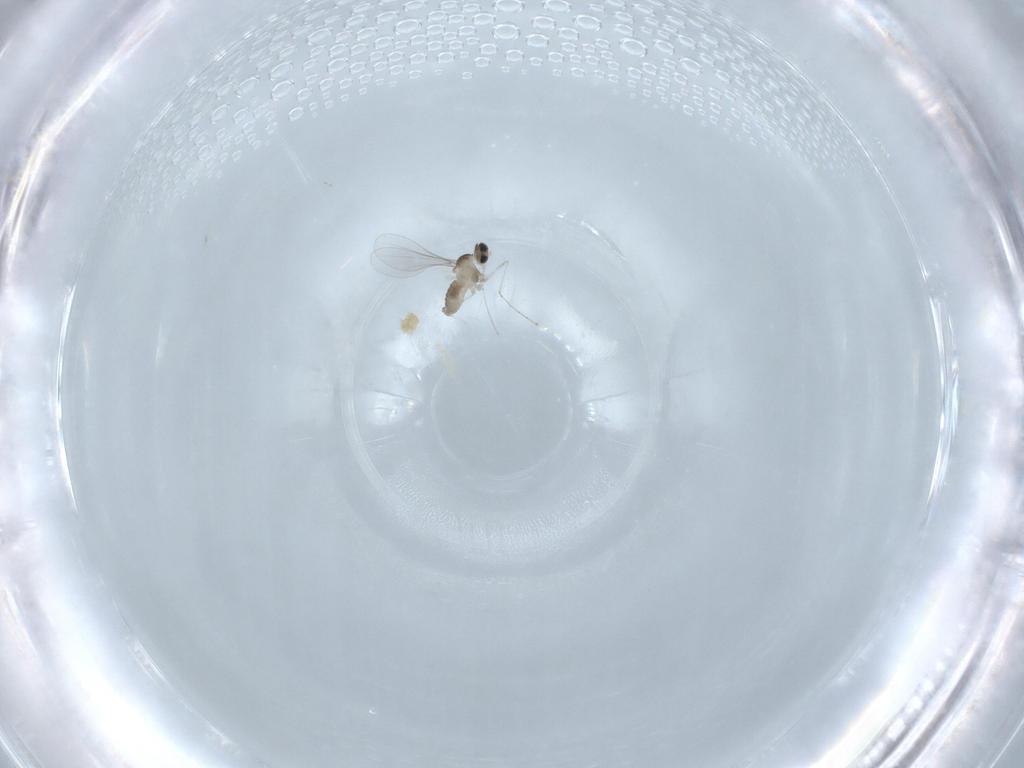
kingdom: Animalia
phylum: Arthropoda
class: Insecta
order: Diptera
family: Cecidomyiidae
